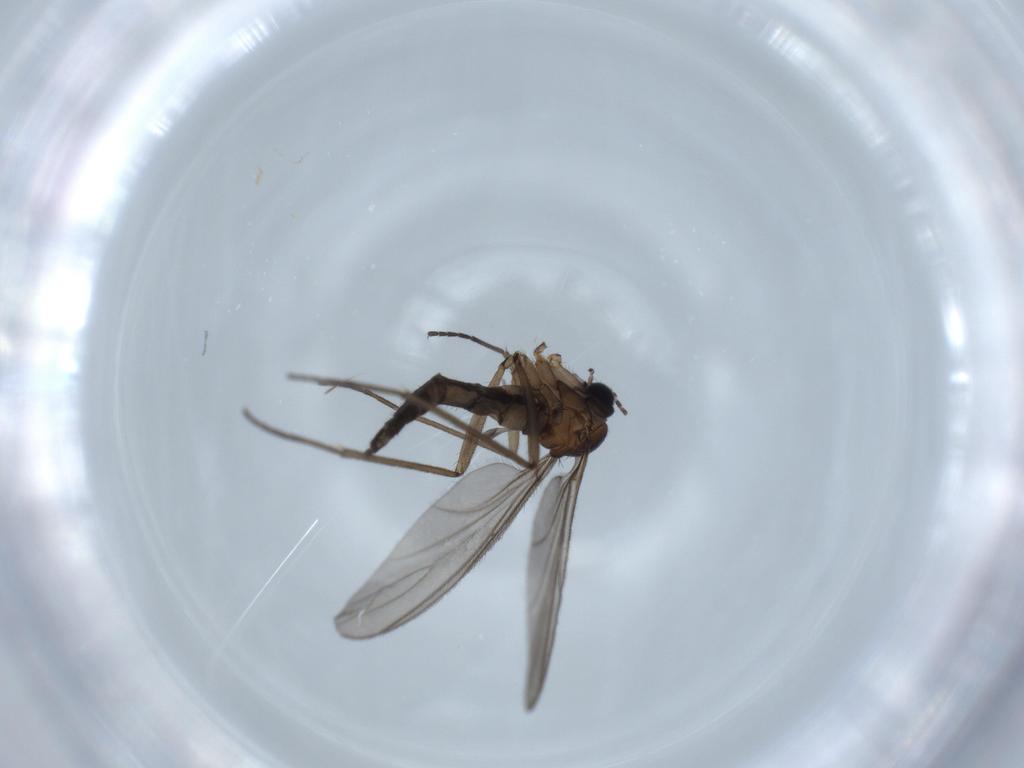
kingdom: Animalia
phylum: Arthropoda
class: Insecta
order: Diptera
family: Sciaridae
